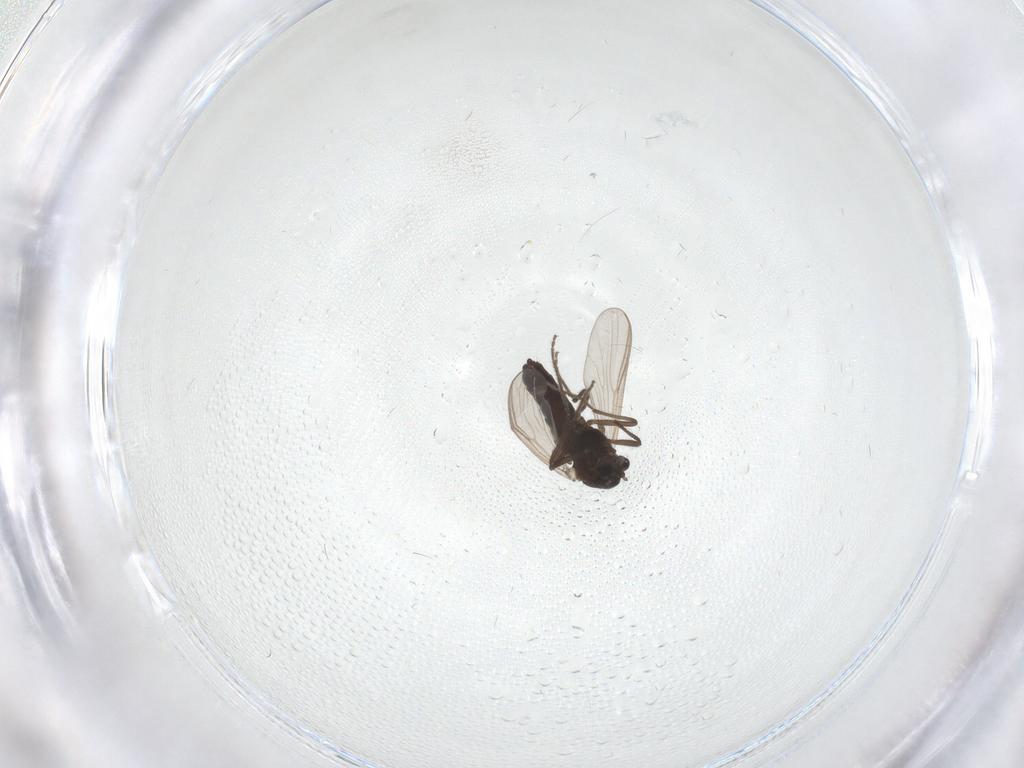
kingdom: Animalia
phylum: Arthropoda
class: Insecta
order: Diptera
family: Chironomidae
